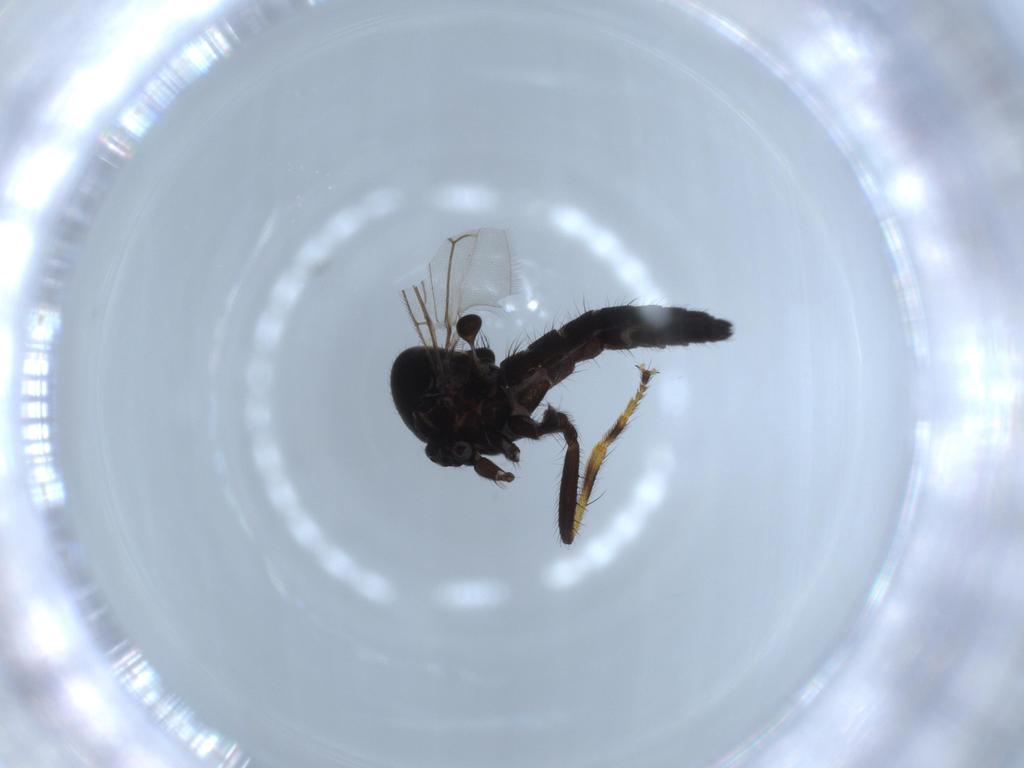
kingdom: Animalia
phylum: Arthropoda
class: Insecta
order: Diptera
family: Hybotidae
